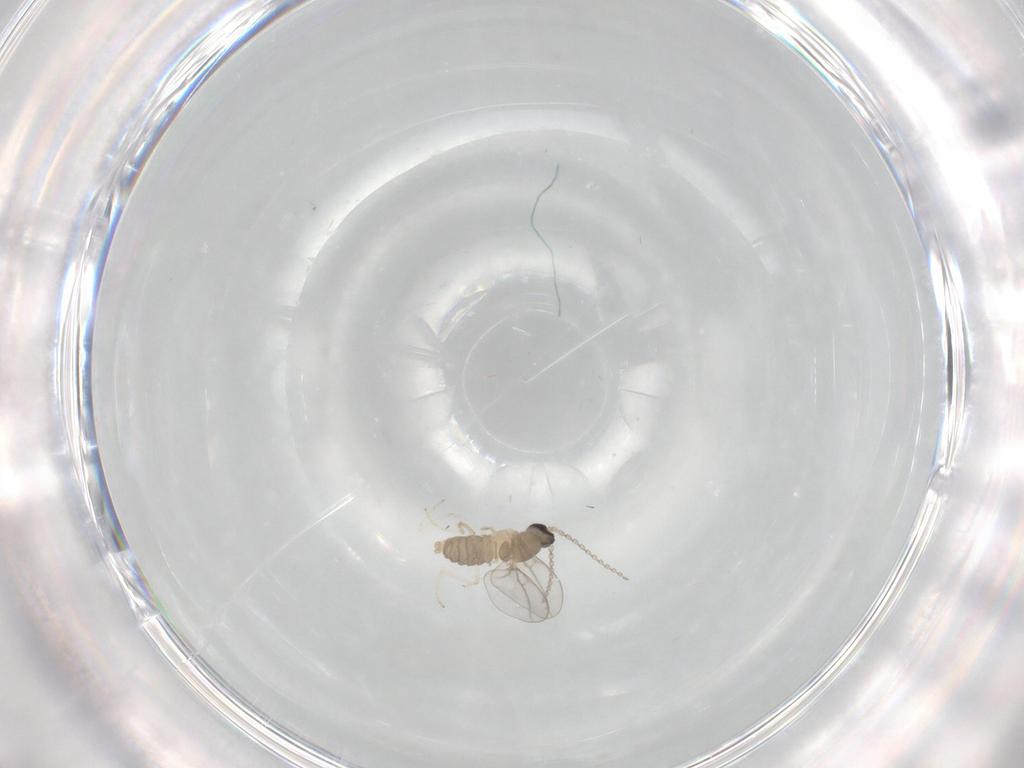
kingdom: Animalia
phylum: Arthropoda
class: Insecta
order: Diptera
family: Cecidomyiidae
